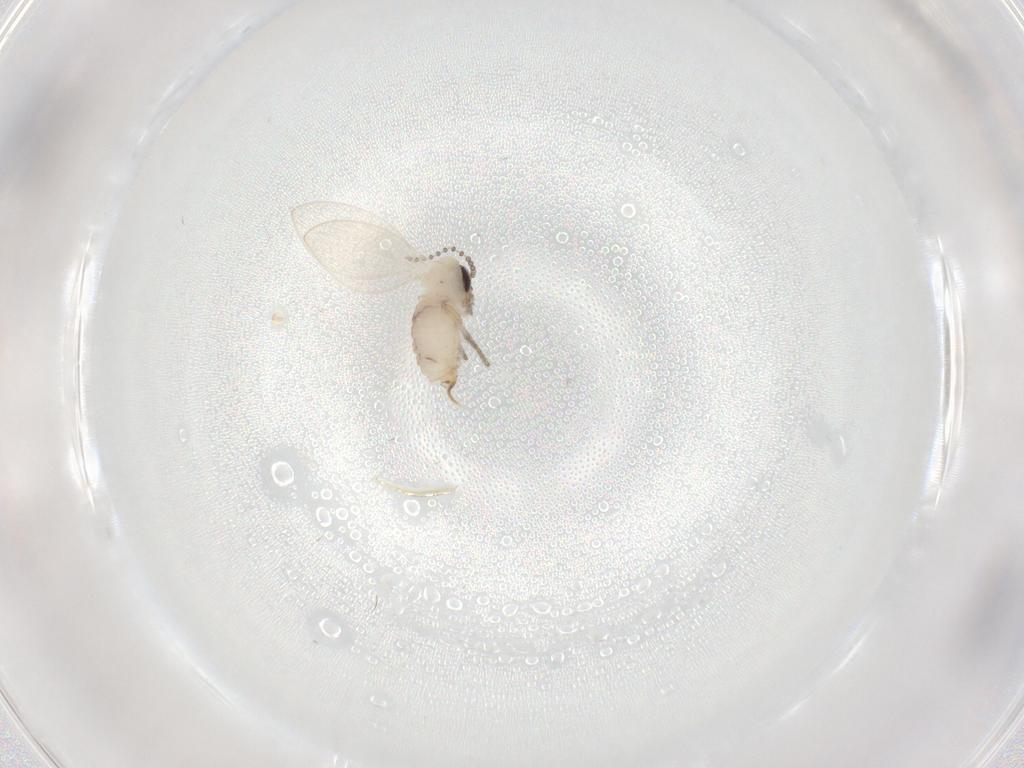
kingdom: Animalia
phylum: Arthropoda
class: Insecta
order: Diptera
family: Psychodidae
